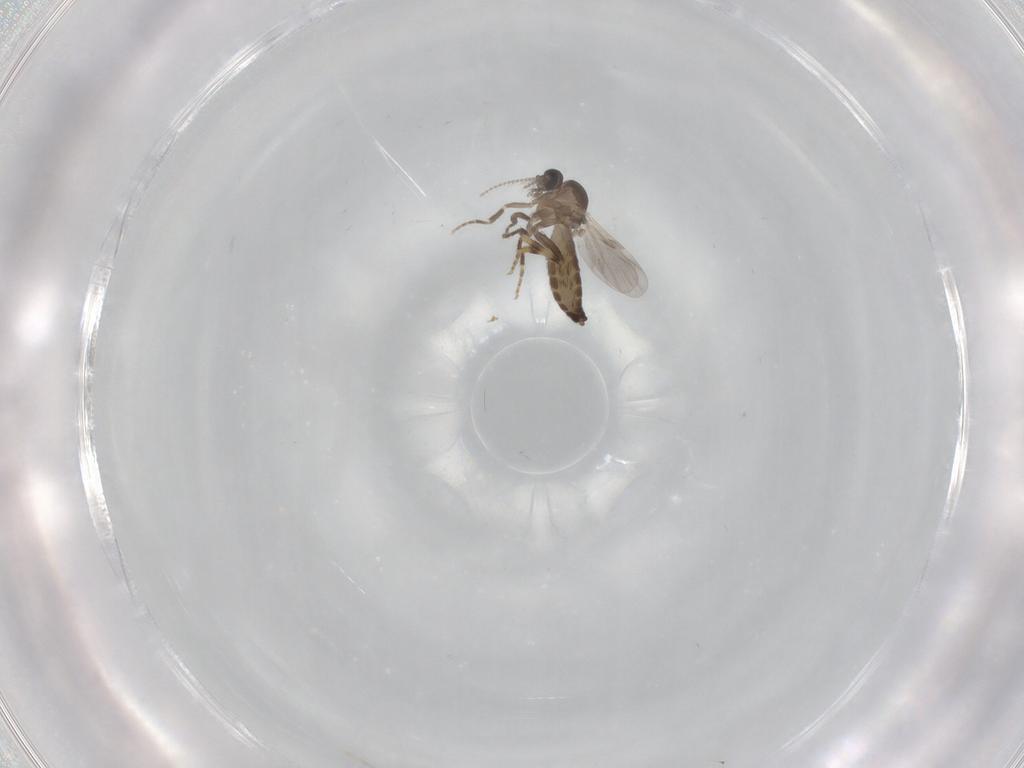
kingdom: Animalia
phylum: Arthropoda
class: Insecta
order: Diptera
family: Ceratopogonidae
